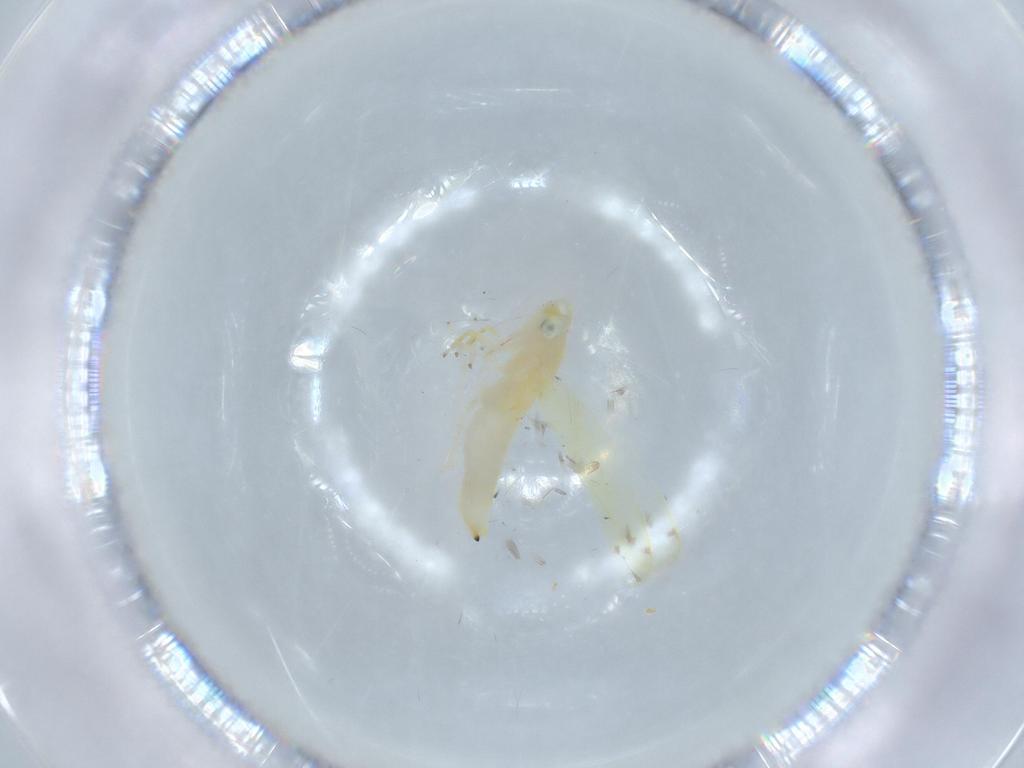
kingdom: Animalia
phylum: Arthropoda
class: Insecta
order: Hemiptera
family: Cicadellidae
